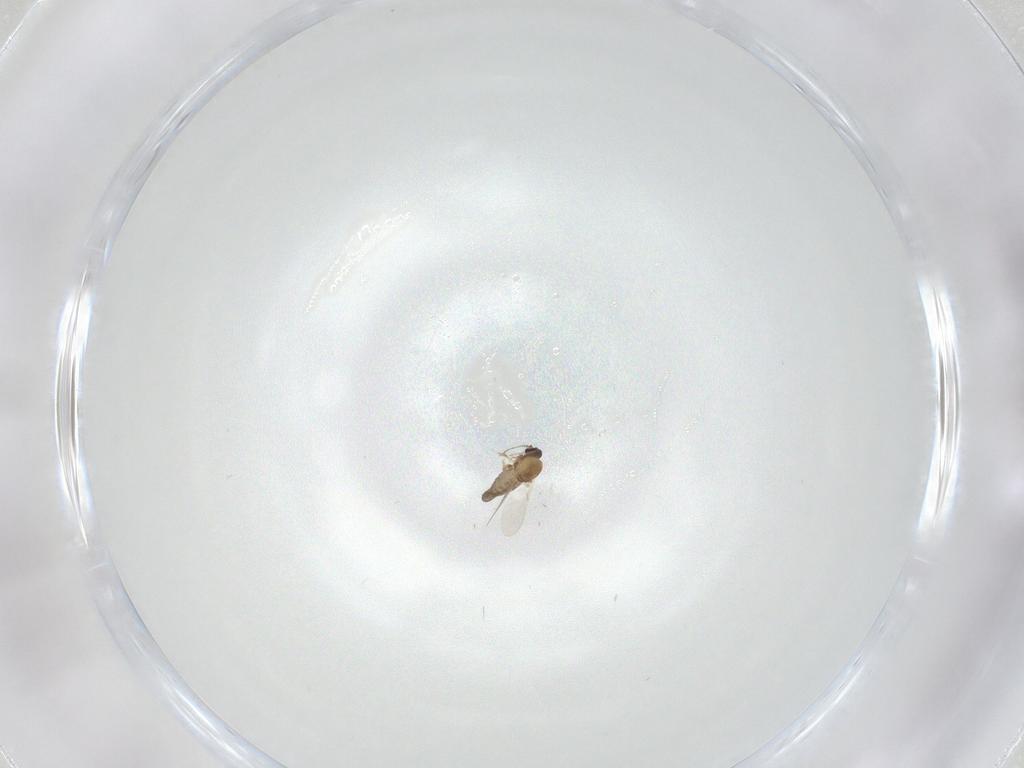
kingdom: Animalia
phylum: Arthropoda
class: Insecta
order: Diptera
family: Ceratopogonidae
